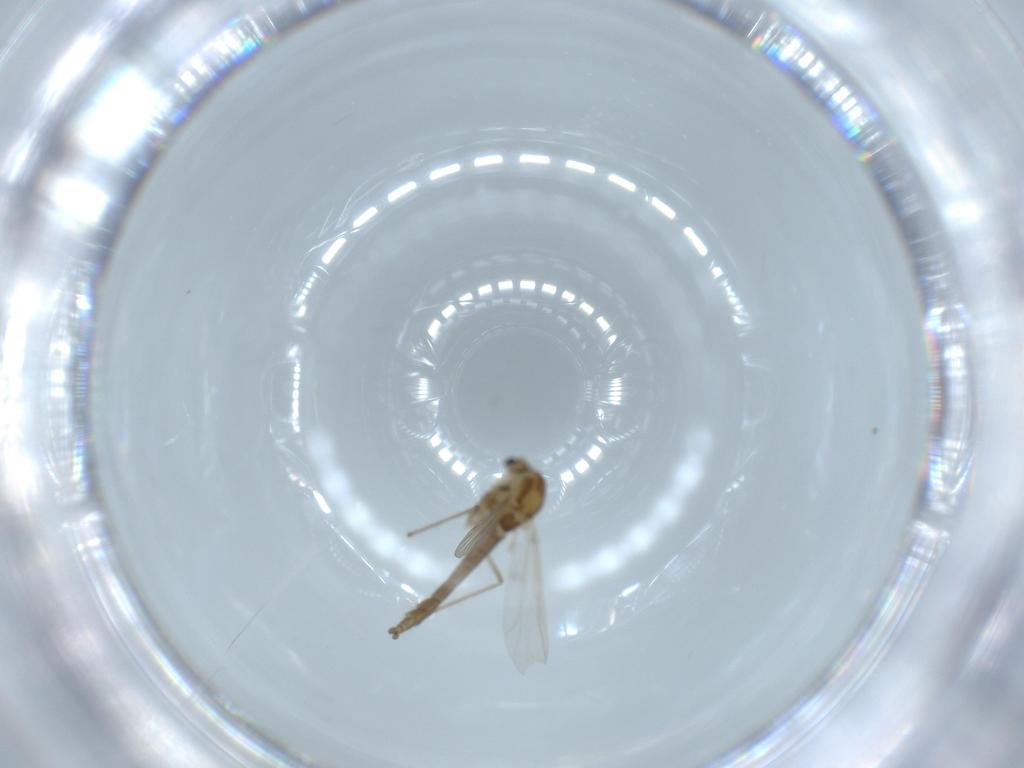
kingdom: Animalia
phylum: Arthropoda
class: Insecta
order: Diptera
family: Chironomidae
